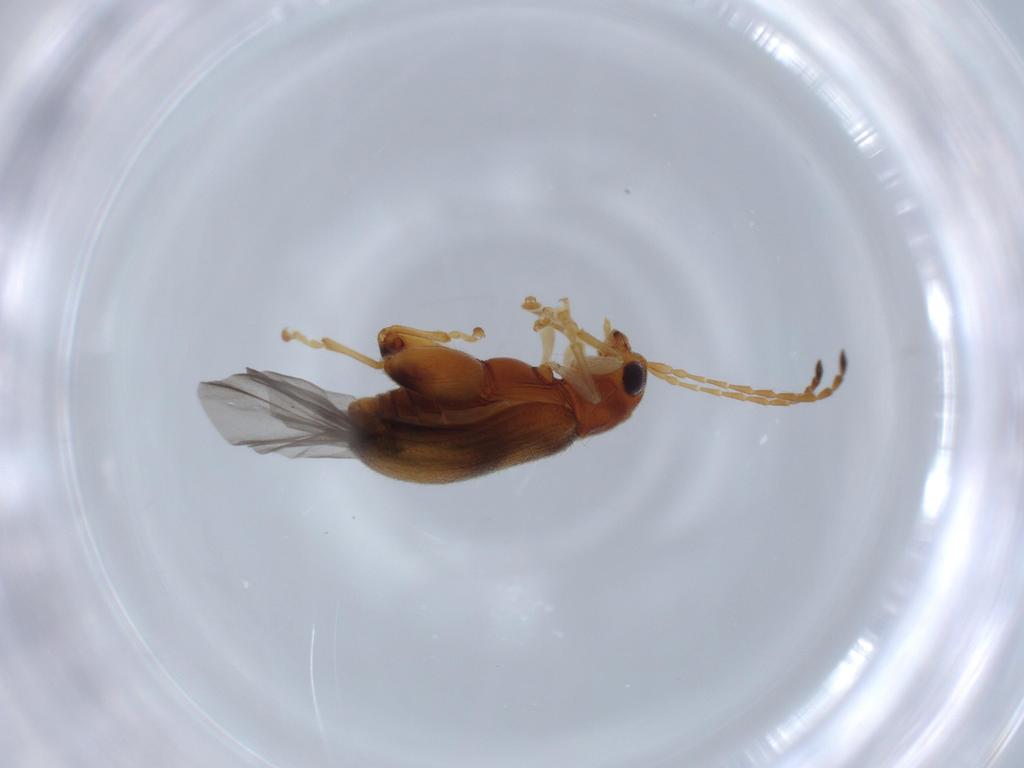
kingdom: Animalia
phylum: Arthropoda
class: Insecta
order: Coleoptera
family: Chrysomelidae
